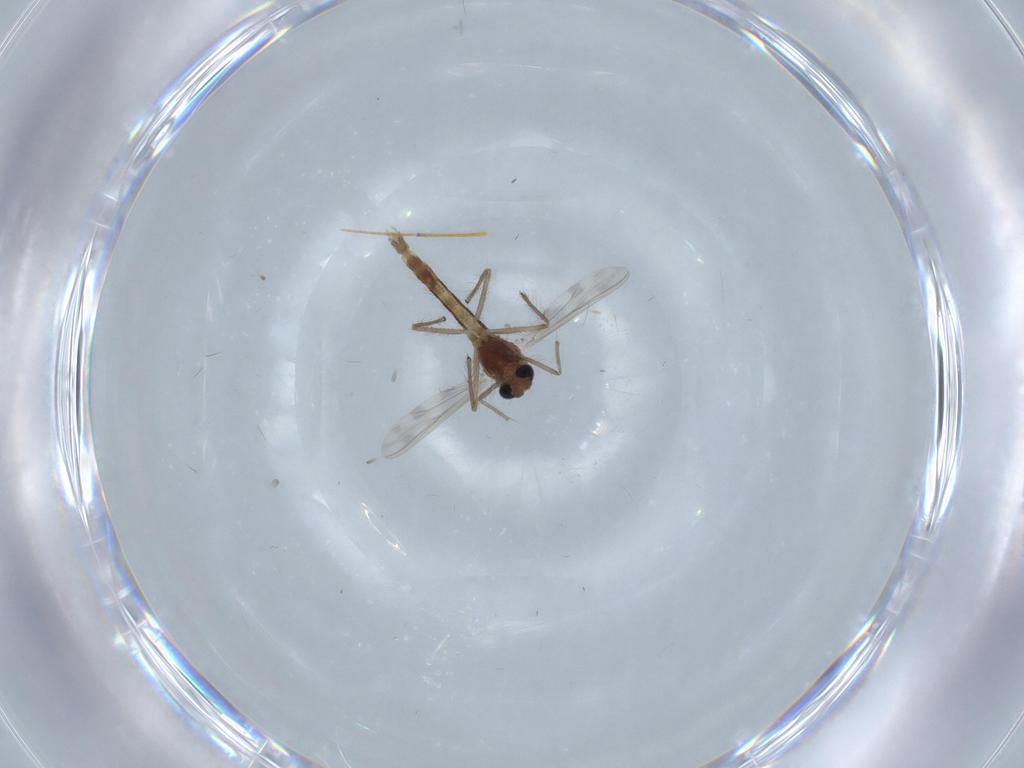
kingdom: Animalia
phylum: Arthropoda
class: Insecta
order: Diptera
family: Chironomidae
